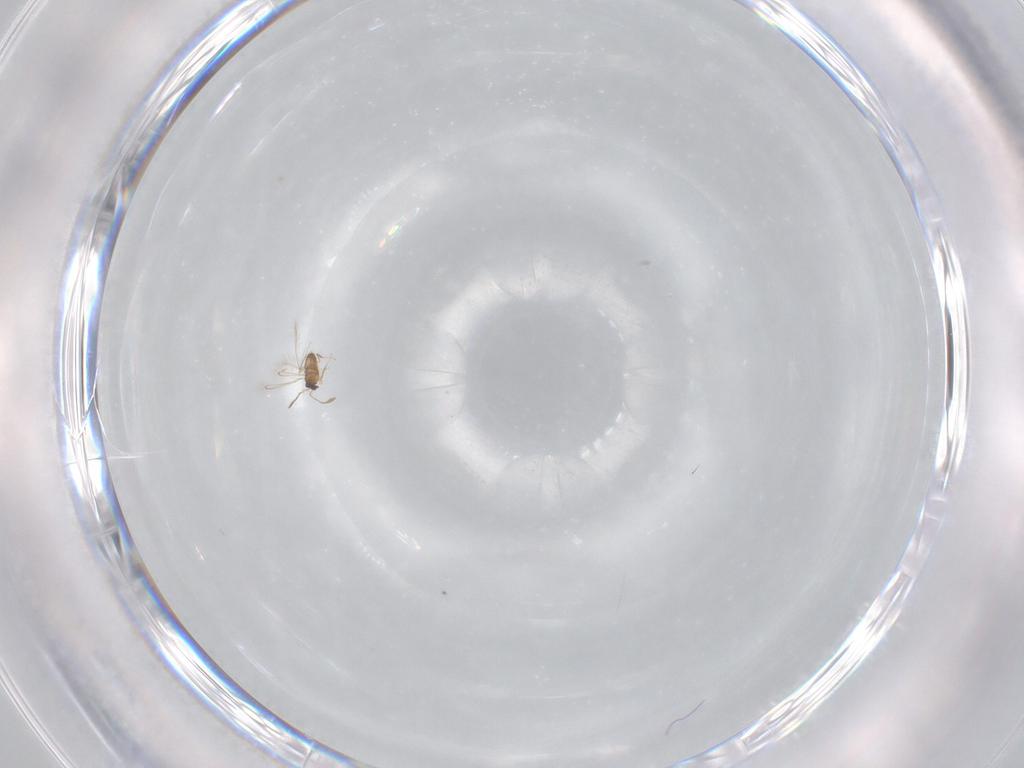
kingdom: Animalia
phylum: Arthropoda
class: Insecta
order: Hymenoptera
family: Mymaridae
